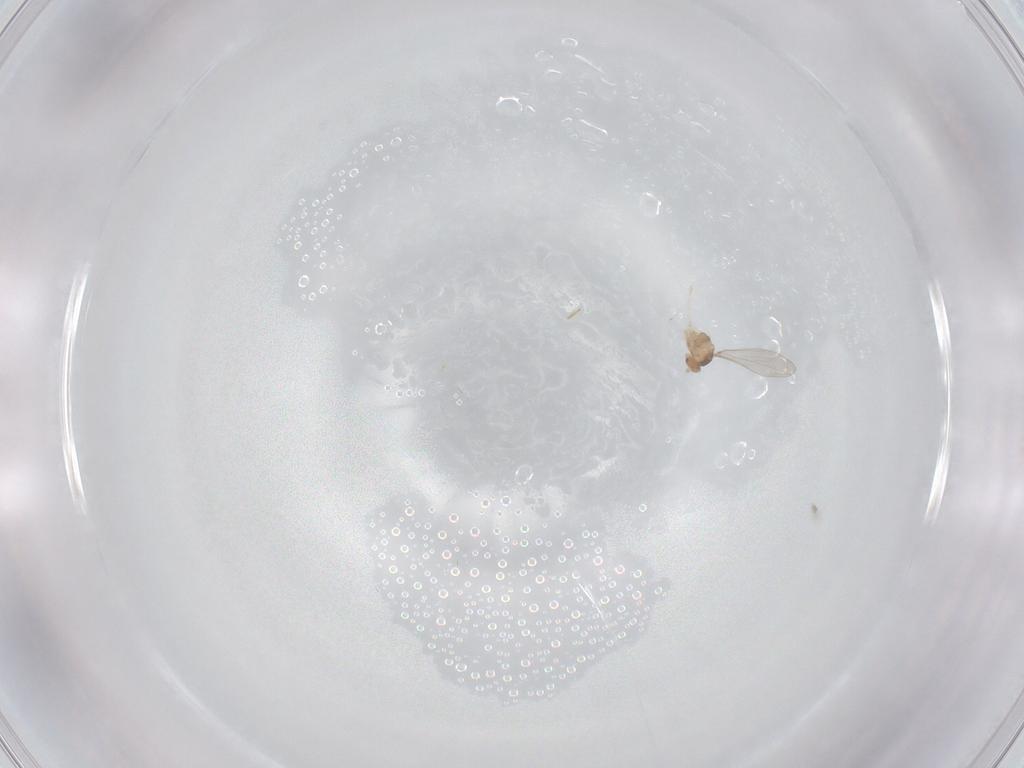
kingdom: Animalia
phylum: Arthropoda
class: Insecta
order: Diptera
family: Cecidomyiidae
